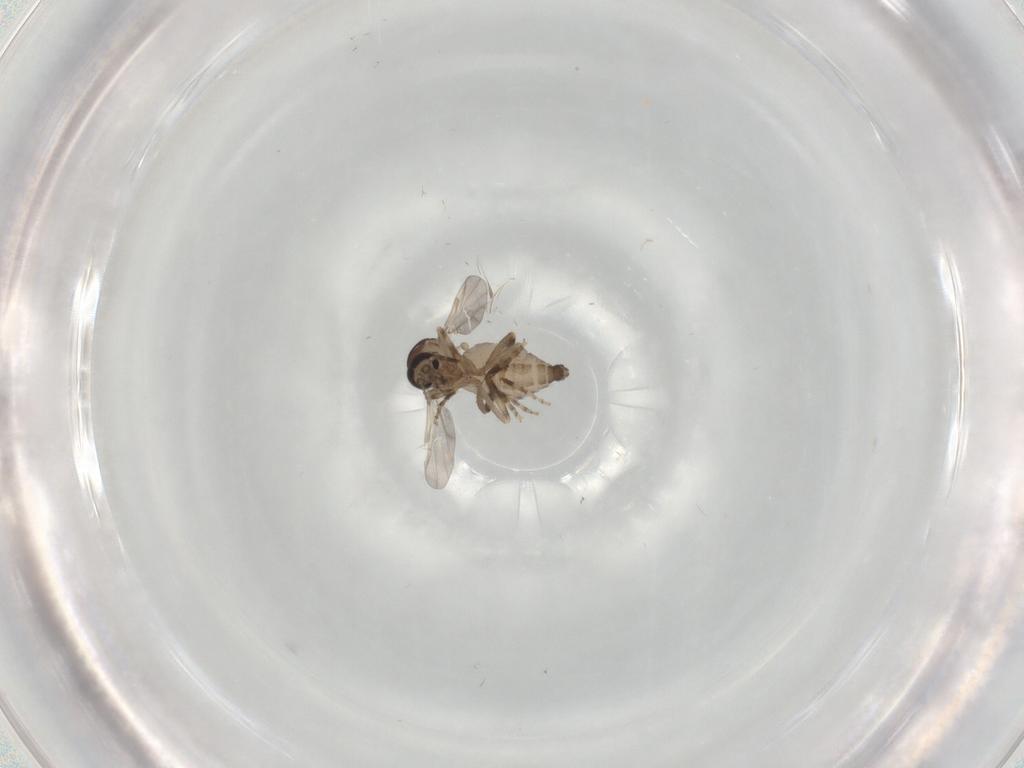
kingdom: Animalia
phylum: Arthropoda
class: Insecta
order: Diptera
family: Ceratopogonidae
